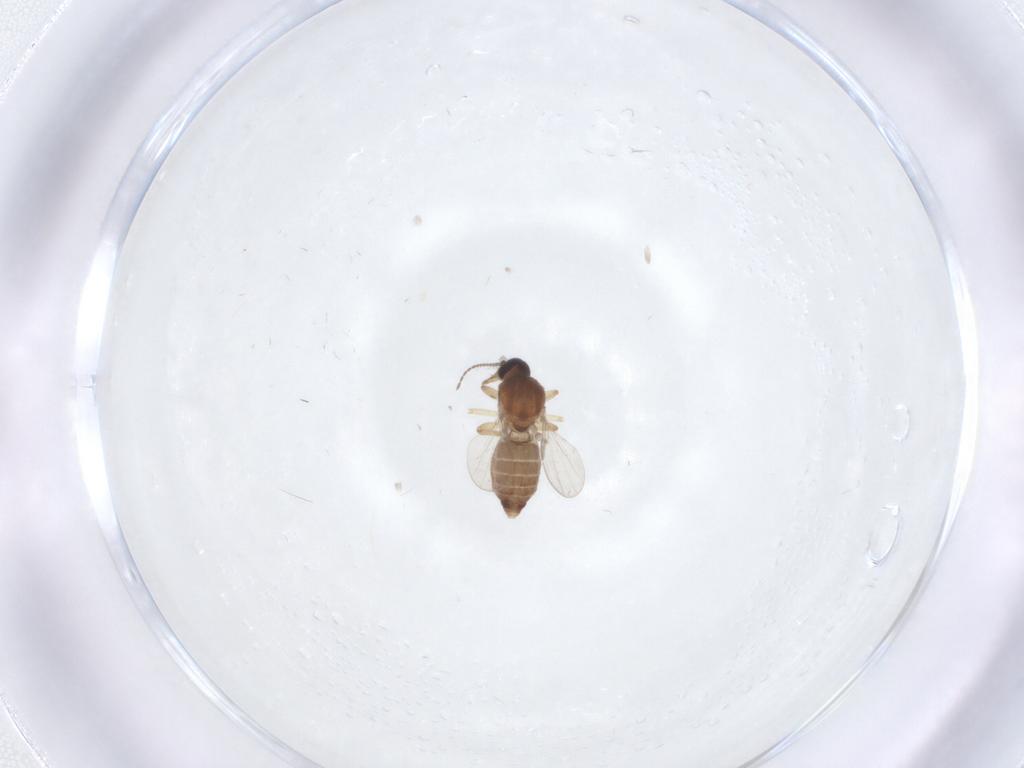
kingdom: Animalia
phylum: Arthropoda
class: Insecta
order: Diptera
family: Ceratopogonidae
